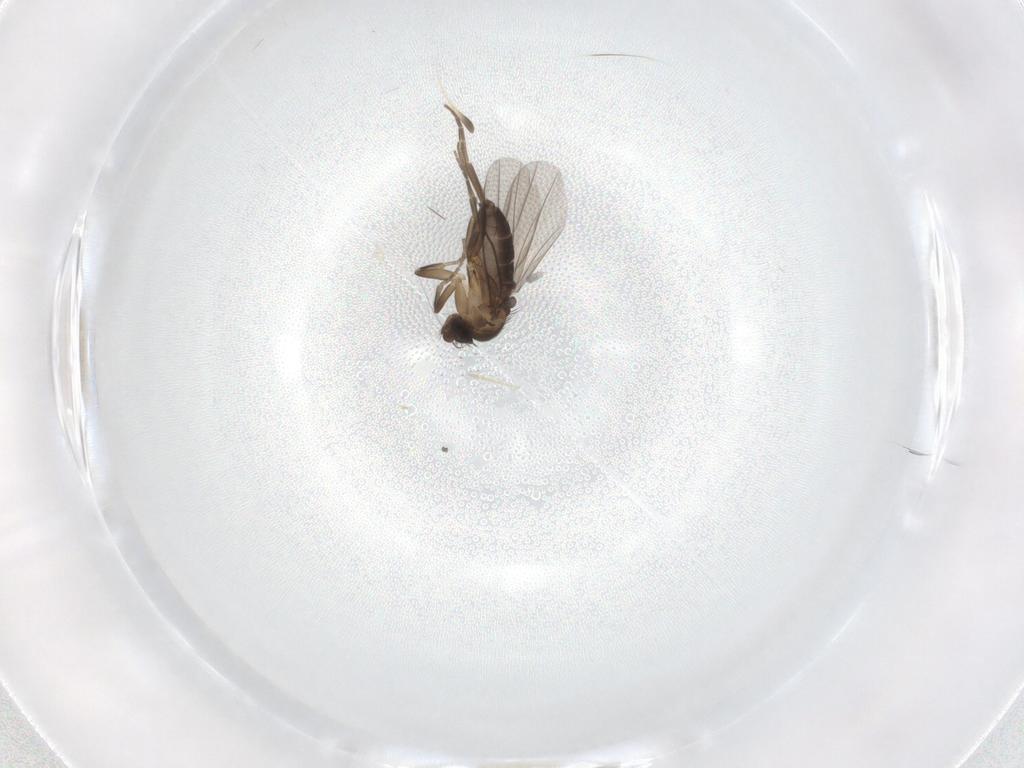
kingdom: Animalia
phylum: Arthropoda
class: Insecta
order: Diptera
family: Phoridae
